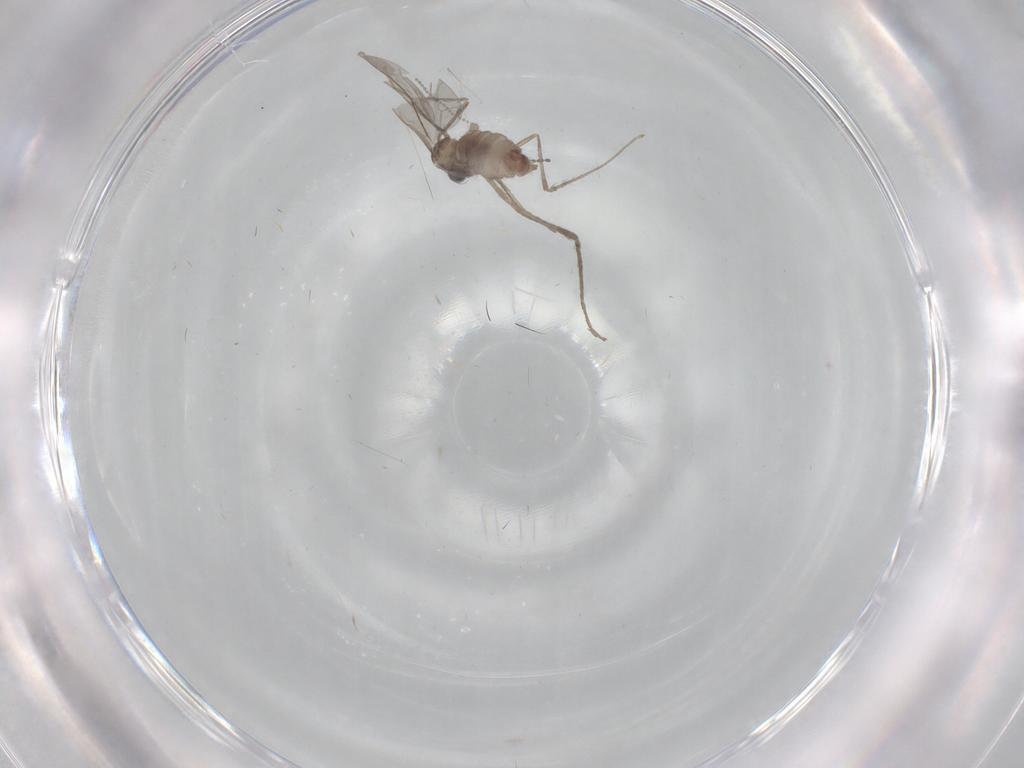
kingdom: Animalia
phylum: Arthropoda
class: Insecta
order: Diptera
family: Cecidomyiidae
